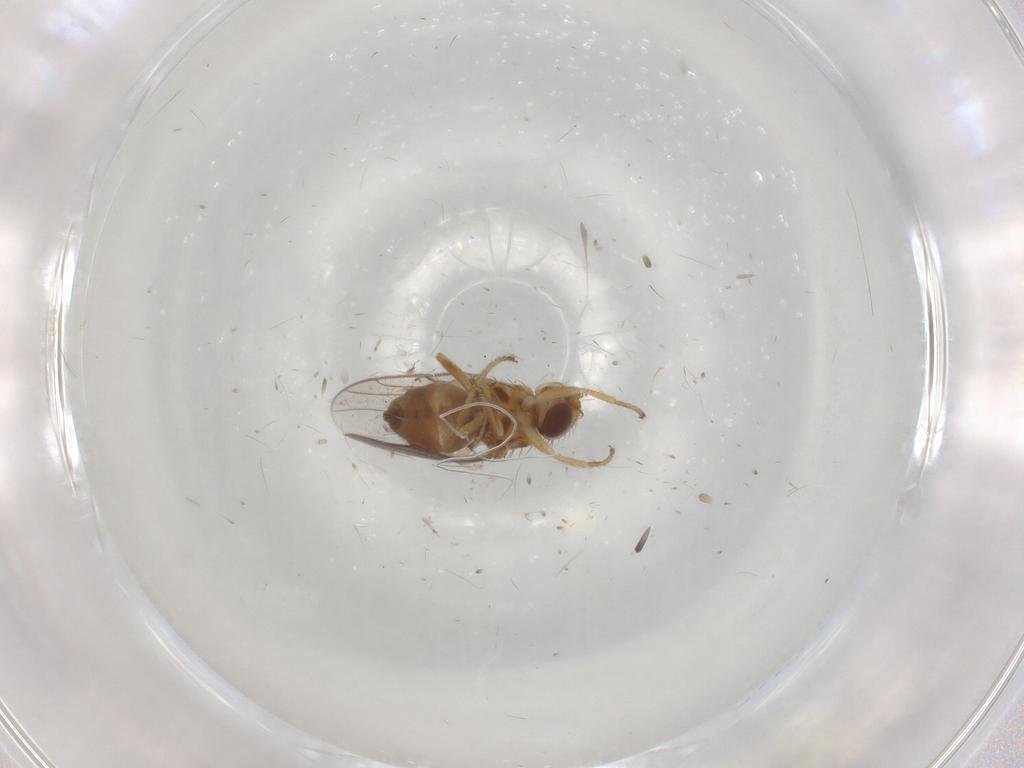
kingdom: Animalia
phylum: Arthropoda
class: Insecta
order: Diptera
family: Chloropidae
